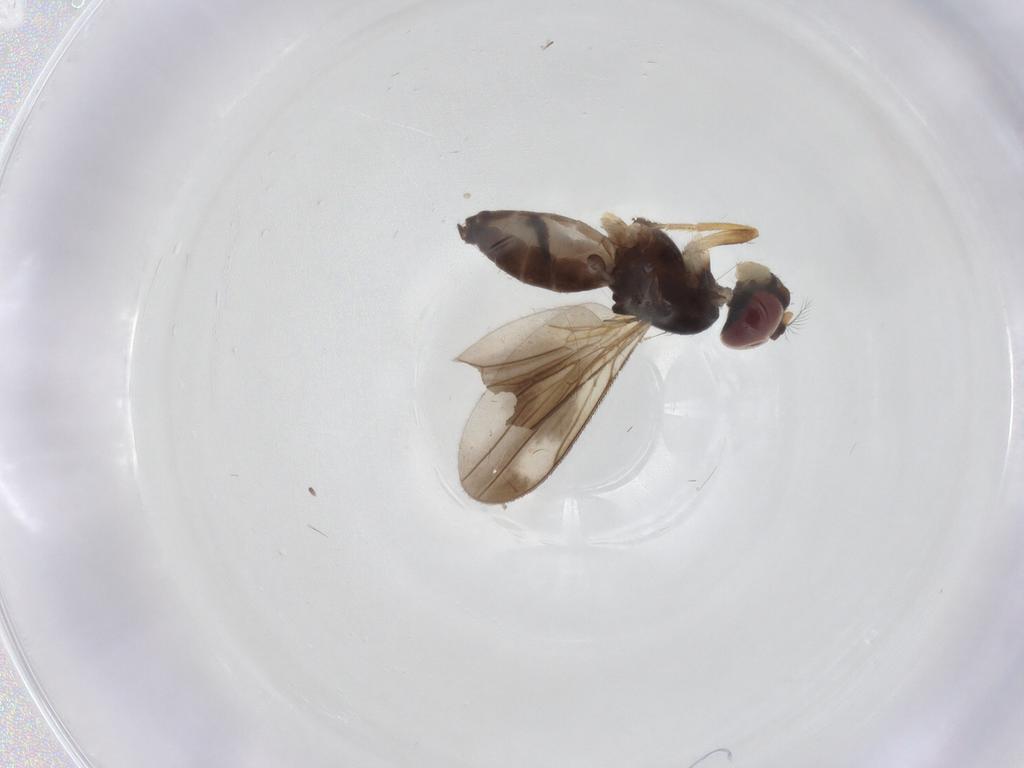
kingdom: Animalia
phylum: Arthropoda
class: Insecta
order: Diptera
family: Phoridae
